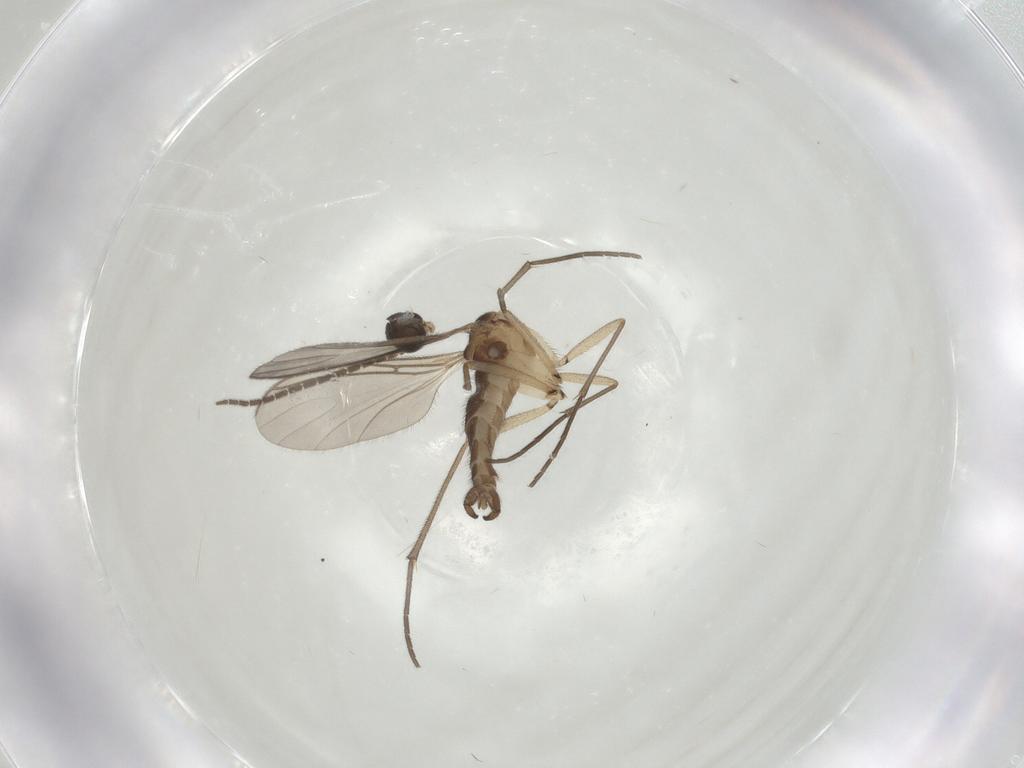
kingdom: Animalia
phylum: Arthropoda
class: Insecta
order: Diptera
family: Sciaridae
